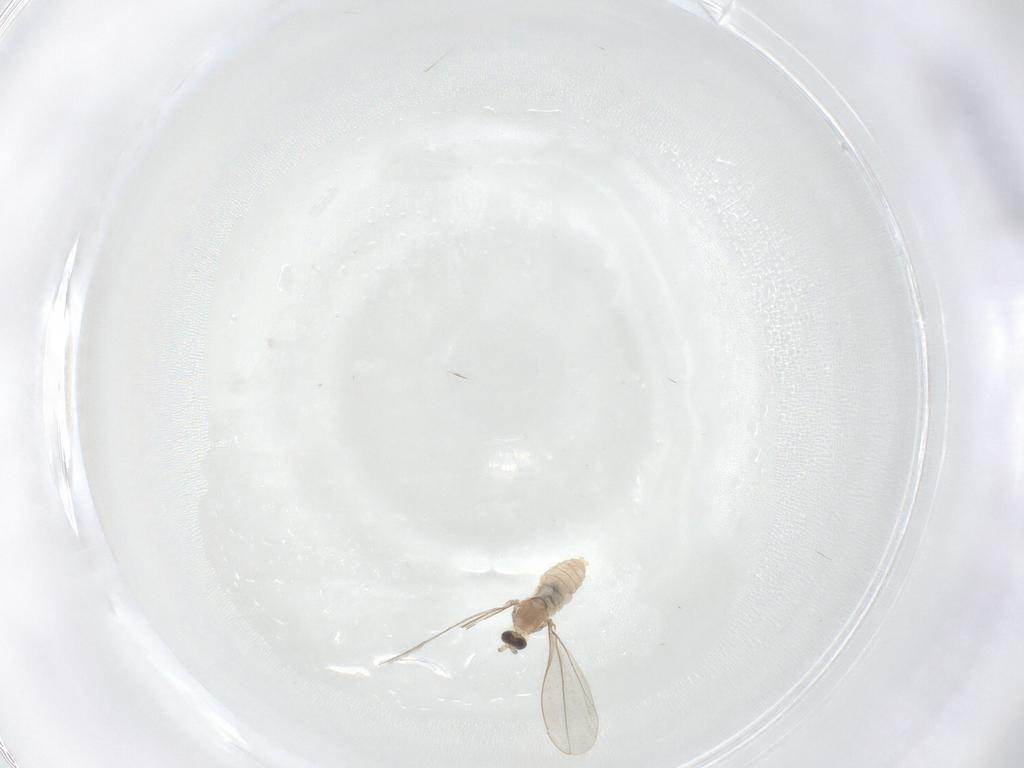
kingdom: Animalia
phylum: Arthropoda
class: Insecta
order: Diptera
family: Cecidomyiidae
